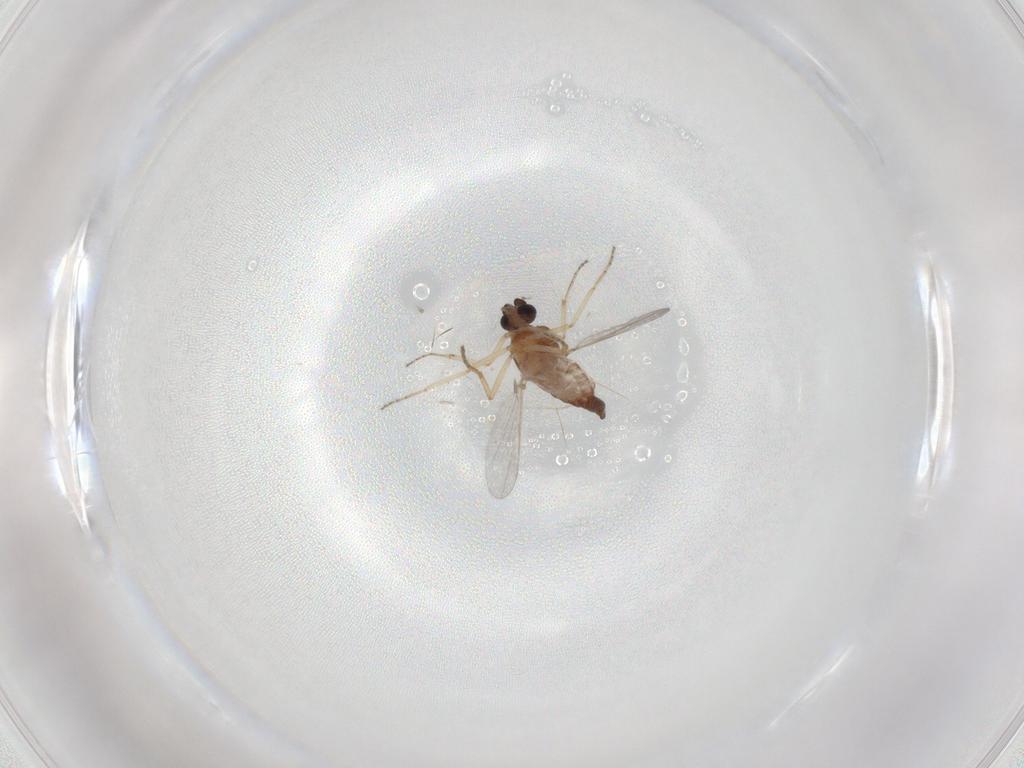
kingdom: Animalia
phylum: Arthropoda
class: Insecta
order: Diptera
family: Ceratopogonidae
